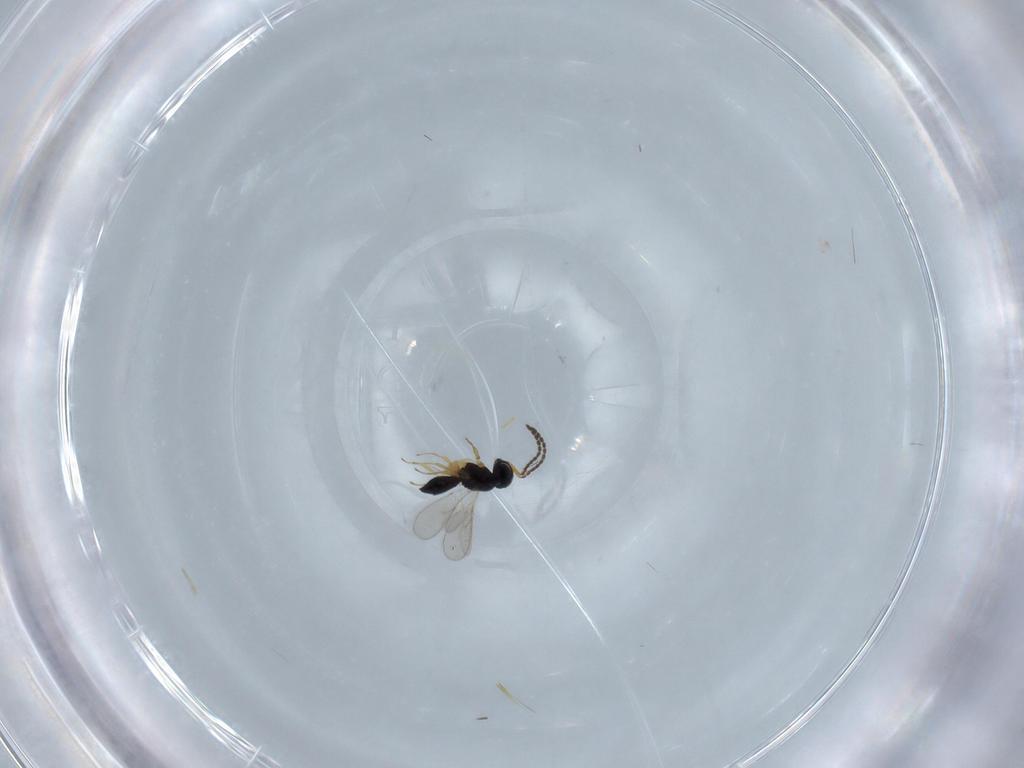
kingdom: Animalia
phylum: Arthropoda
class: Insecta
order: Hymenoptera
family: Scelionidae
